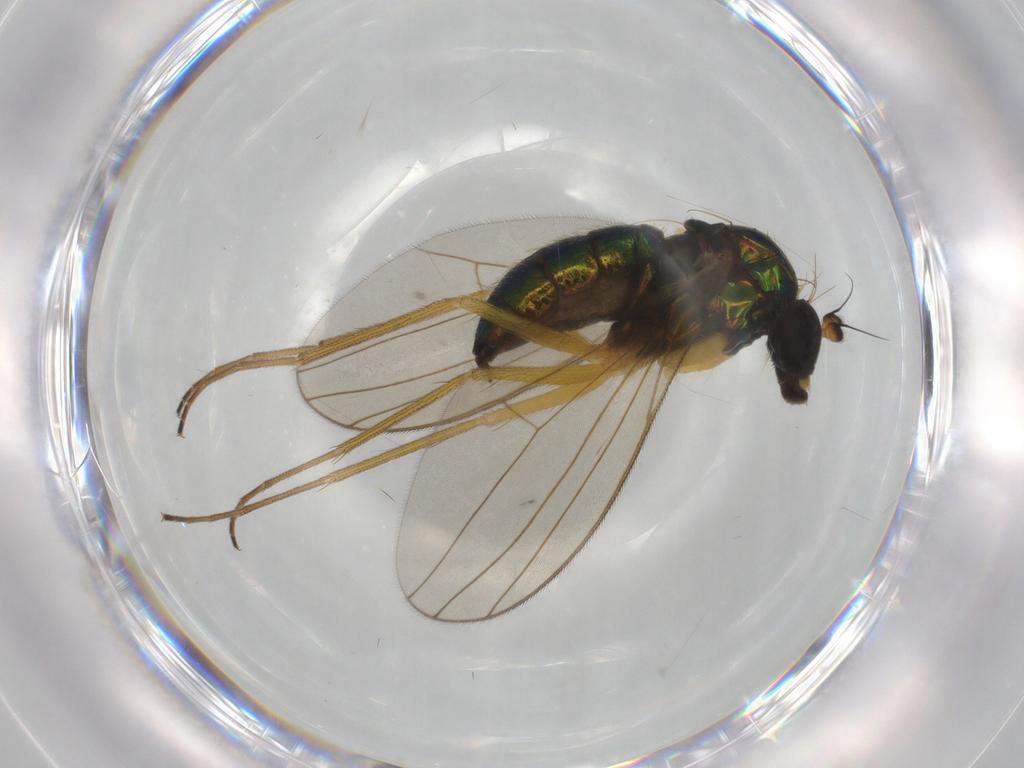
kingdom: Animalia
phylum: Arthropoda
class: Insecta
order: Diptera
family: Dolichopodidae
